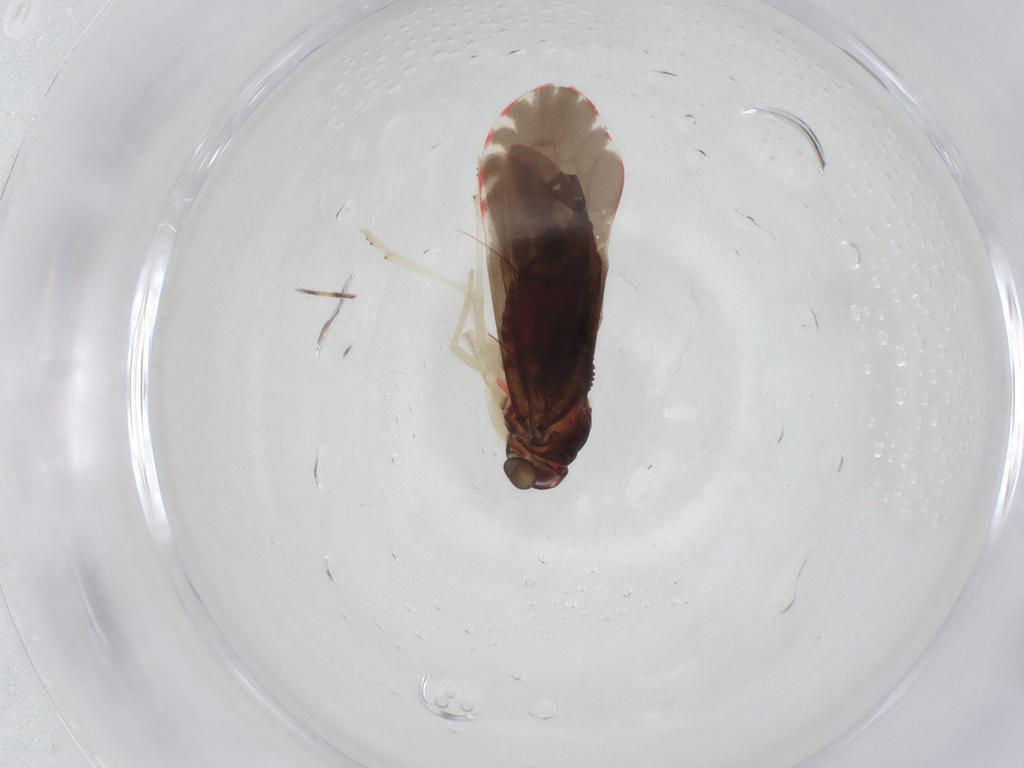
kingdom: Animalia
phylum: Arthropoda
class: Insecta
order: Hemiptera
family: Derbidae
